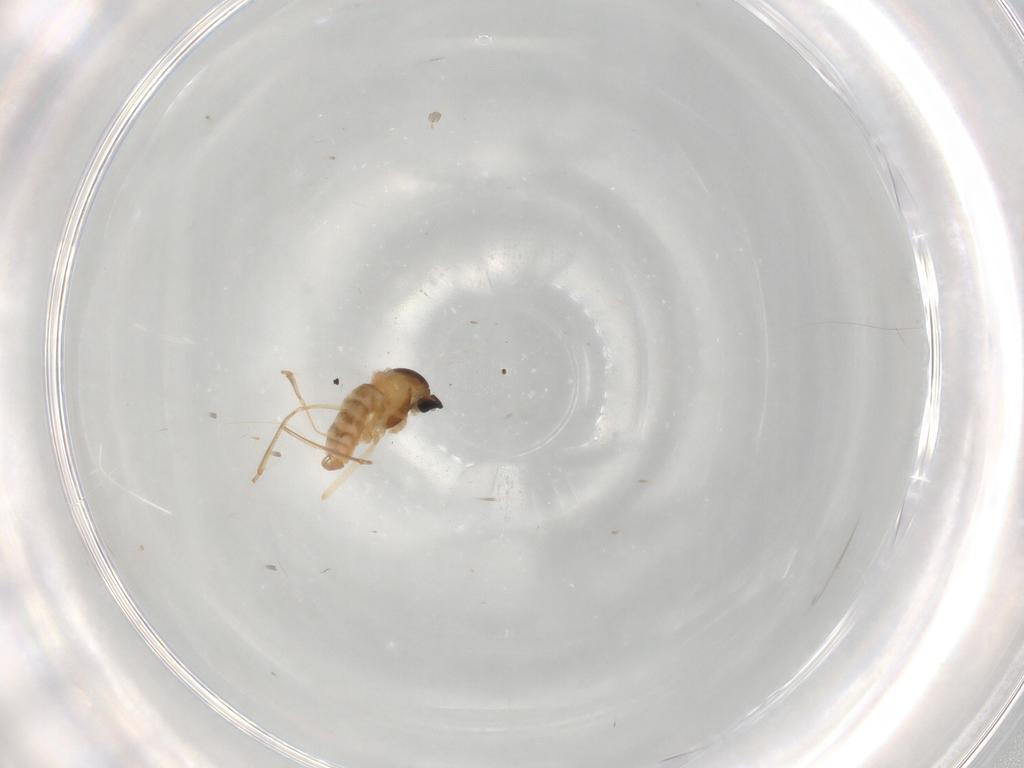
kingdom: Animalia
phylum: Arthropoda
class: Insecta
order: Diptera
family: Cecidomyiidae
